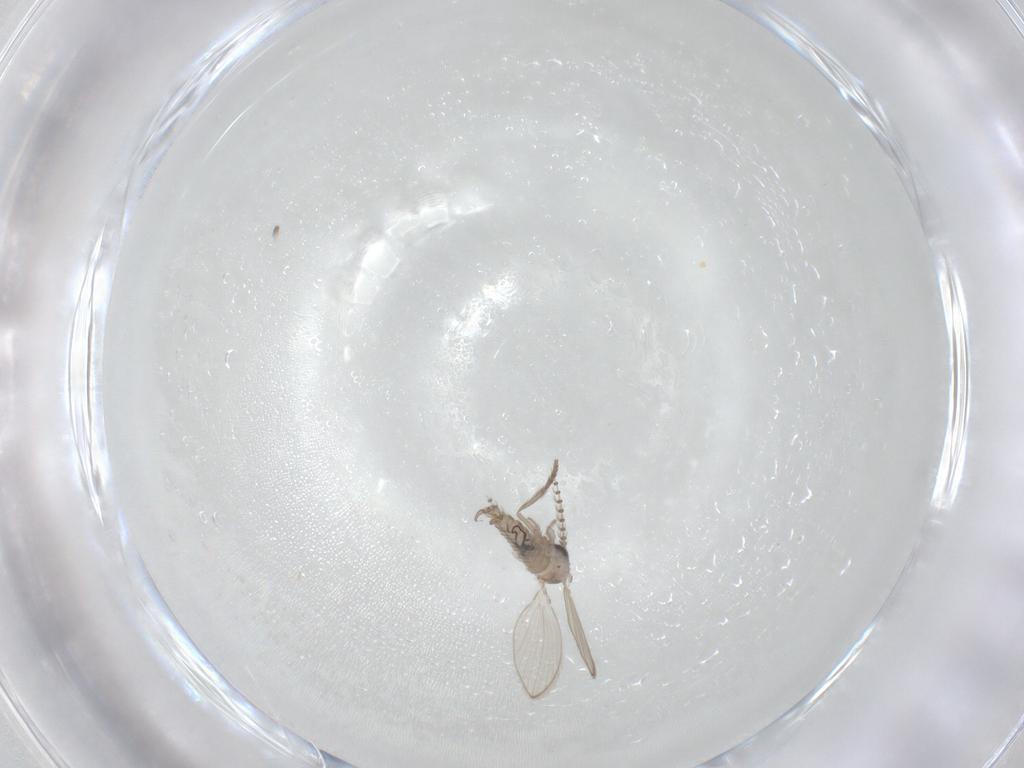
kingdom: Animalia
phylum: Arthropoda
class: Insecta
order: Diptera
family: Psychodidae
